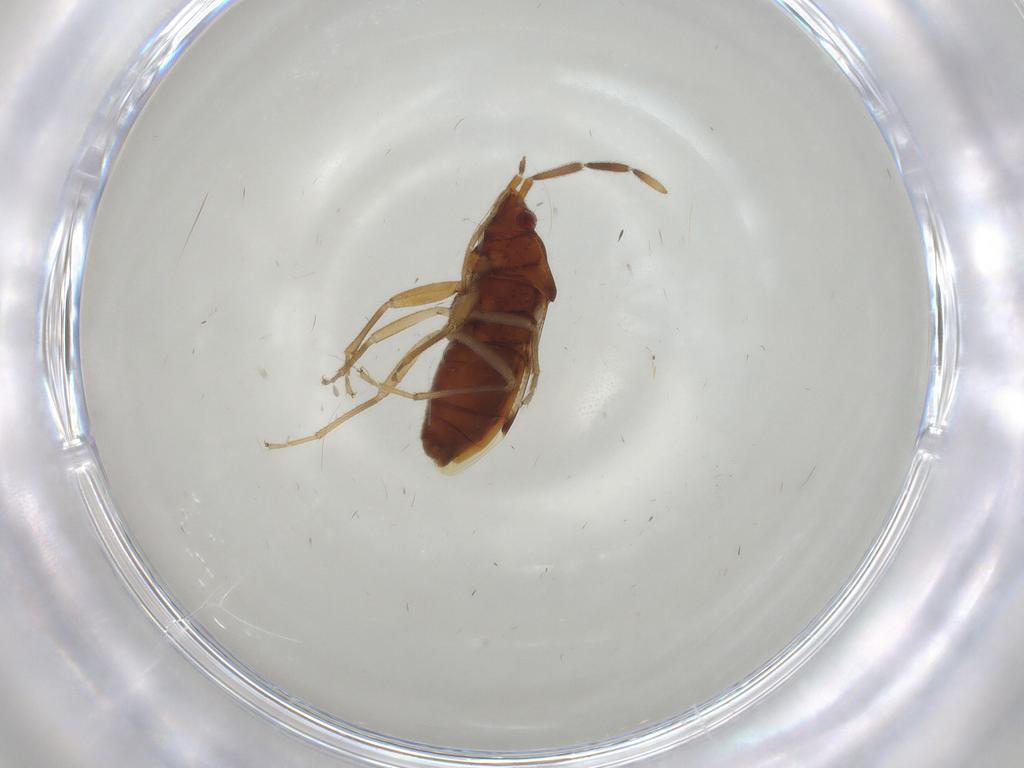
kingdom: Animalia
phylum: Arthropoda
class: Insecta
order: Hemiptera
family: Rhyparochromidae
